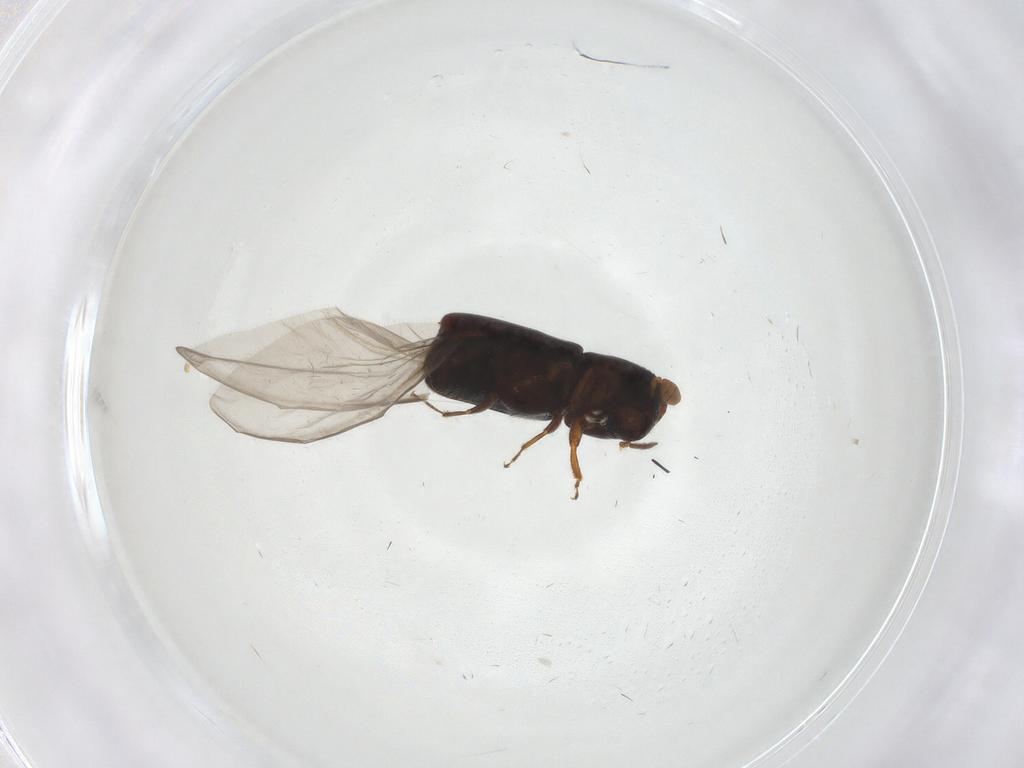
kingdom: Animalia
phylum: Arthropoda
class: Insecta
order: Coleoptera
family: Curculionidae
